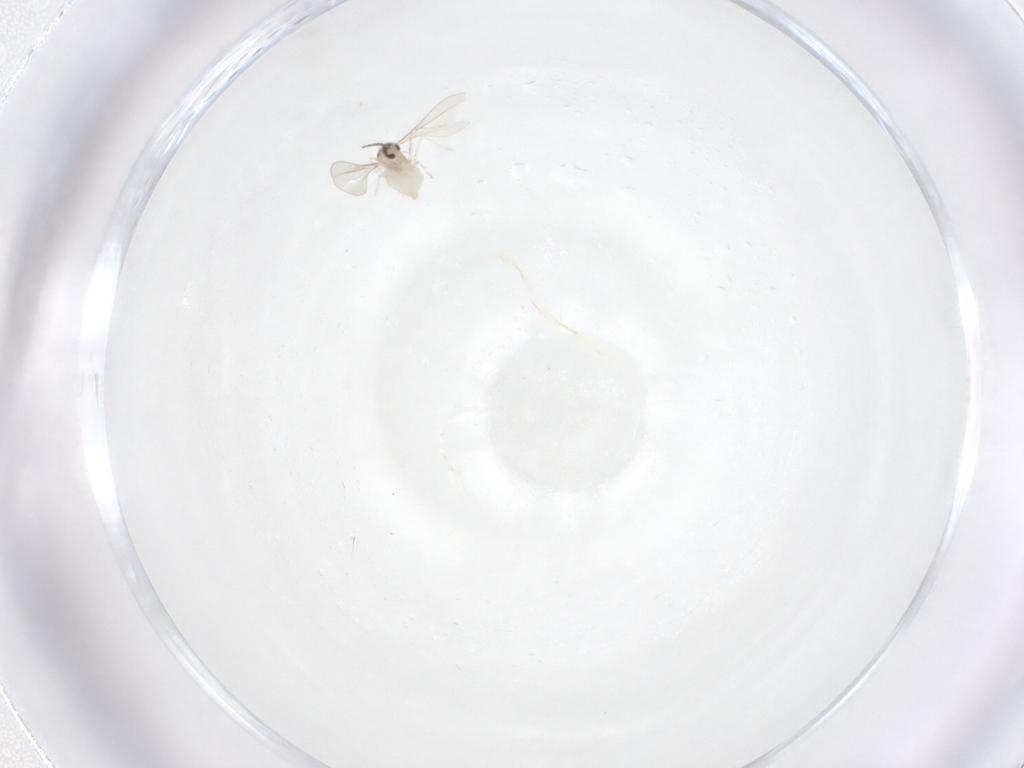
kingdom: Animalia
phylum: Arthropoda
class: Insecta
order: Diptera
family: Cecidomyiidae
